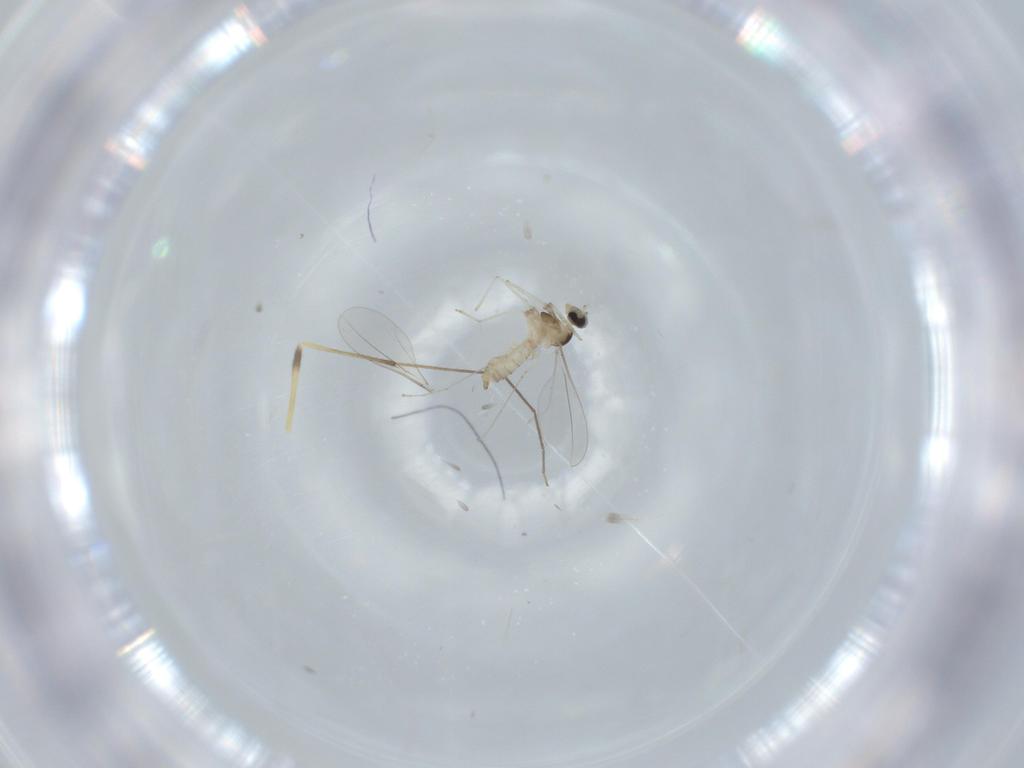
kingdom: Animalia
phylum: Arthropoda
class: Insecta
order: Diptera
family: Cecidomyiidae
